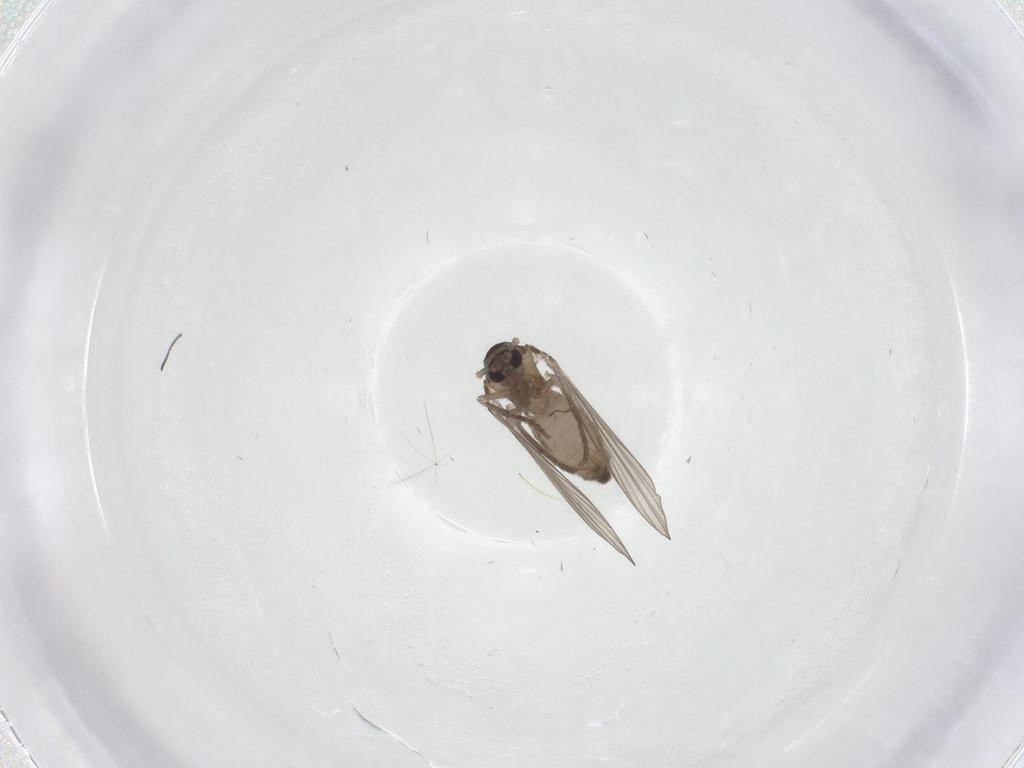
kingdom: Animalia
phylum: Arthropoda
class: Insecta
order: Diptera
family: Psychodidae
